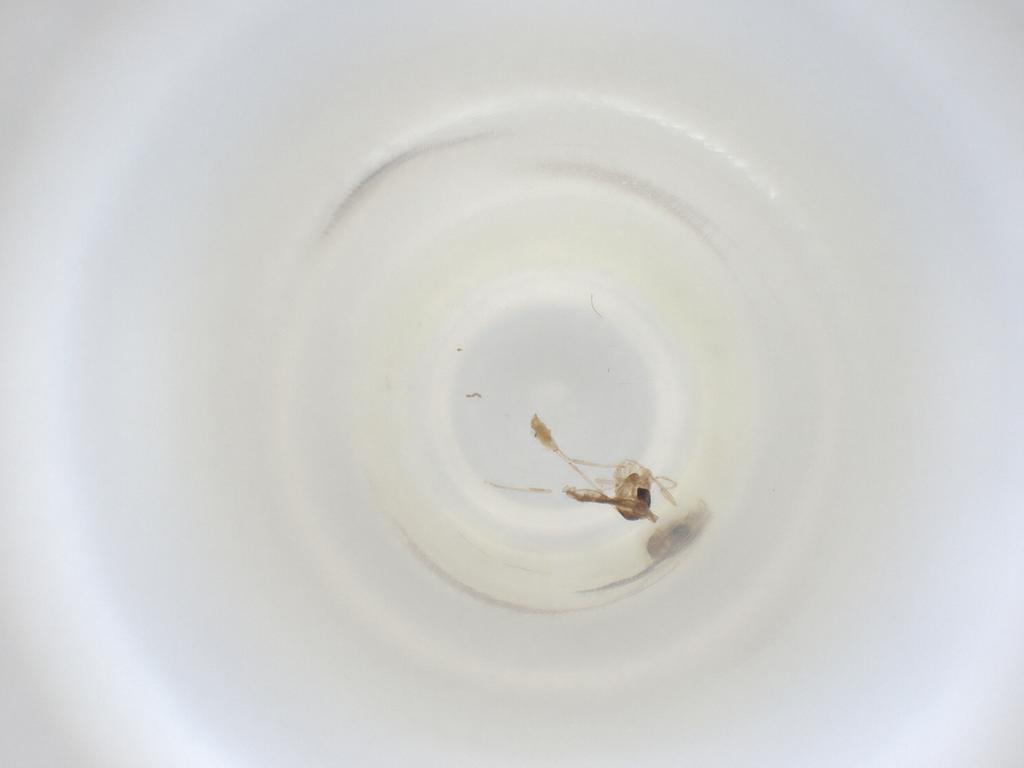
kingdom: Animalia
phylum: Arthropoda
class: Insecta
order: Diptera
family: Cecidomyiidae
